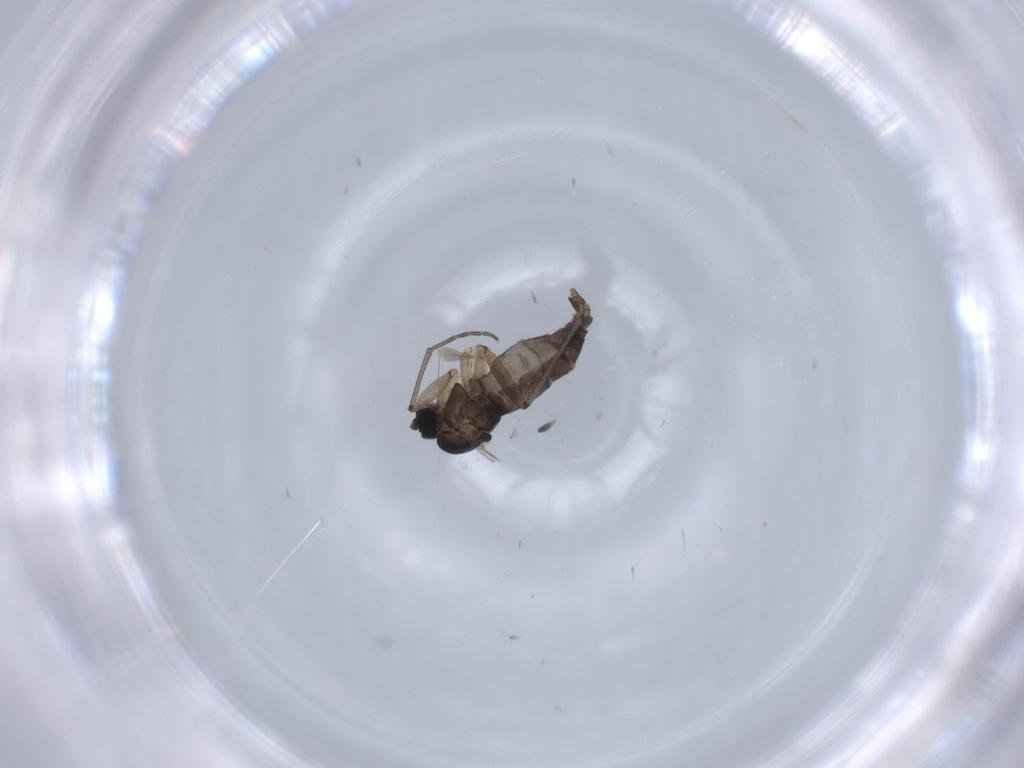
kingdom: Animalia
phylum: Arthropoda
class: Insecta
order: Diptera
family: Sciaridae
